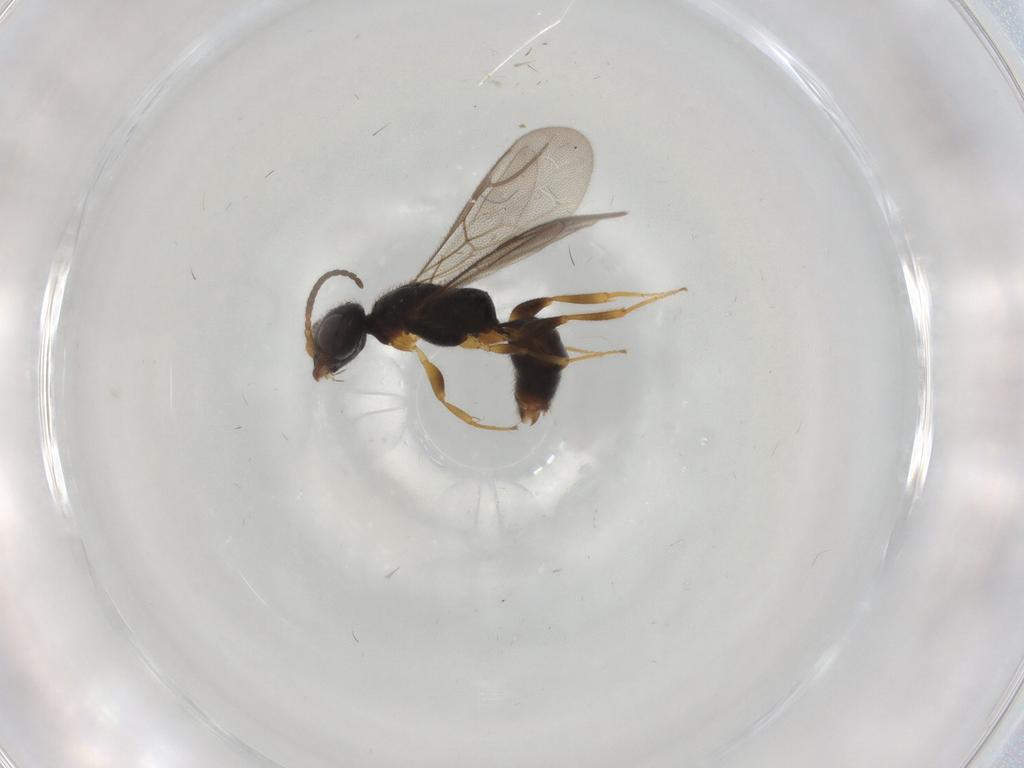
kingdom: Animalia
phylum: Arthropoda
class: Insecta
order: Hymenoptera
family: Bethylidae
